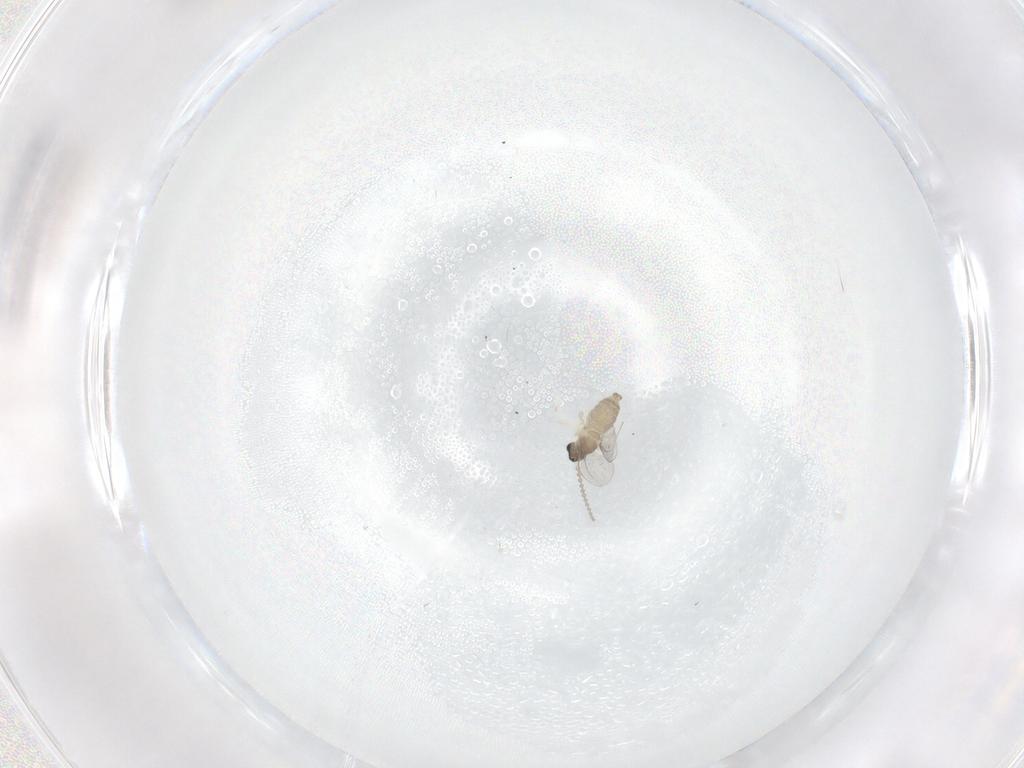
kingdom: Animalia
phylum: Arthropoda
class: Insecta
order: Diptera
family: Cecidomyiidae
